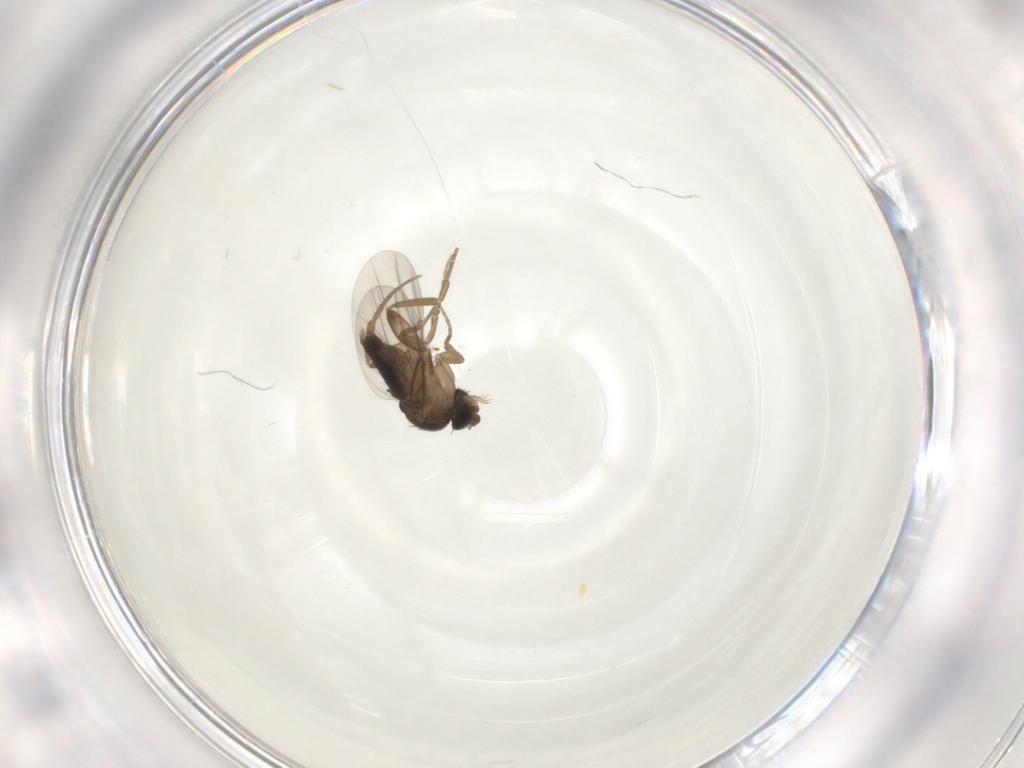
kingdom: Animalia
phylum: Arthropoda
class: Insecta
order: Diptera
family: Phoridae
